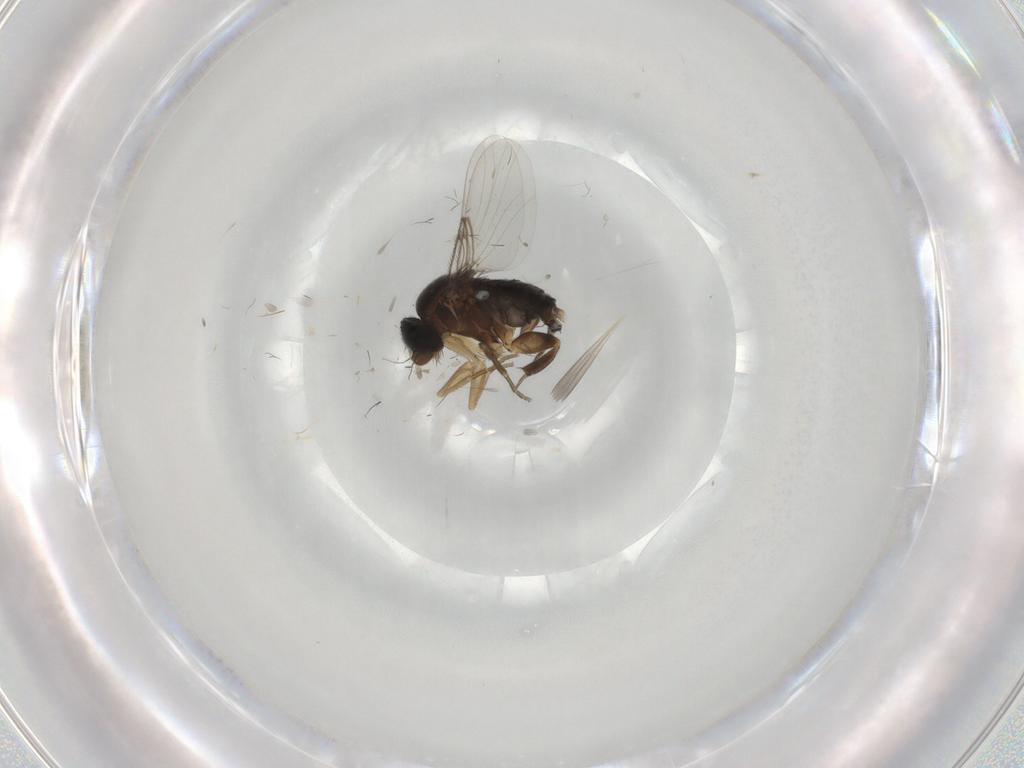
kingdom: Animalia
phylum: Arthropoda
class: Insecta
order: Diptera
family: Phoridae
